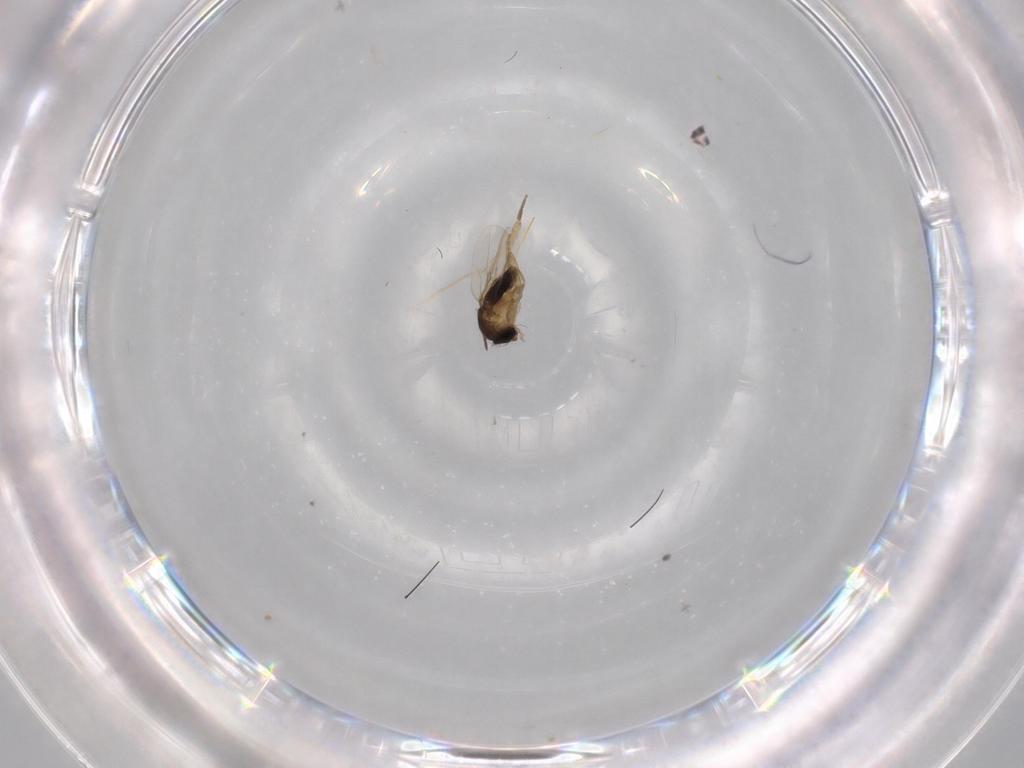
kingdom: Animalia
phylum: Arthropoda
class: Insecta
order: Diptera
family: Phoridae
